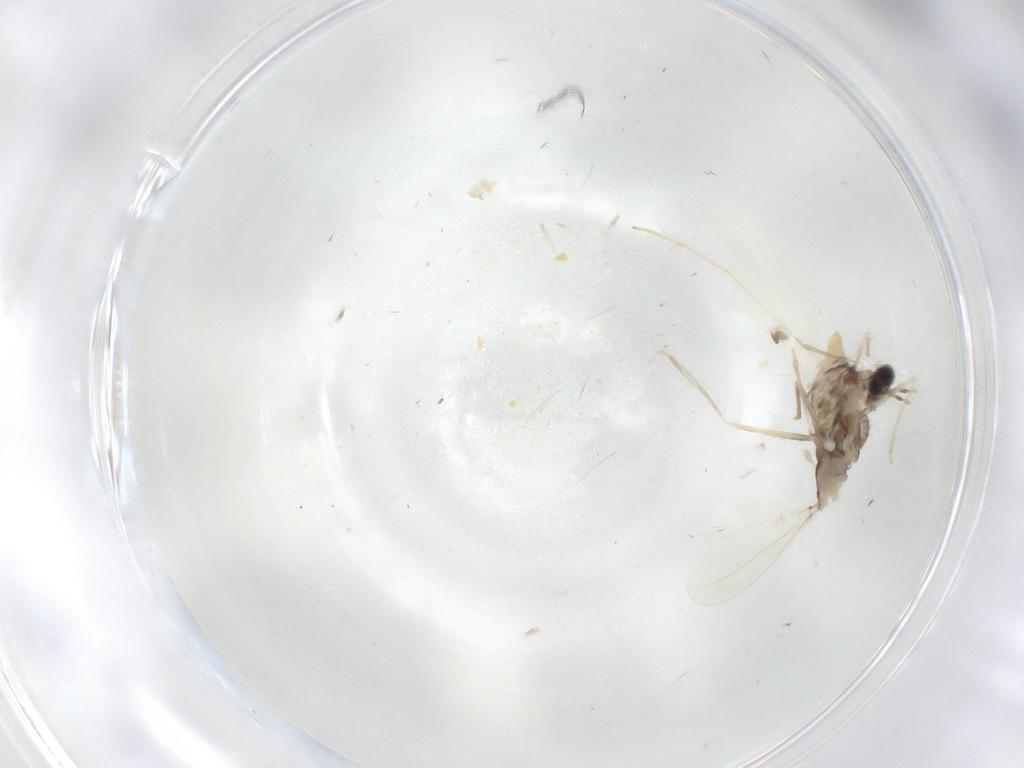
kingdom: Animalia
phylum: Arthropoda
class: Insecta
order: Diptera
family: Cecidomyiidae
